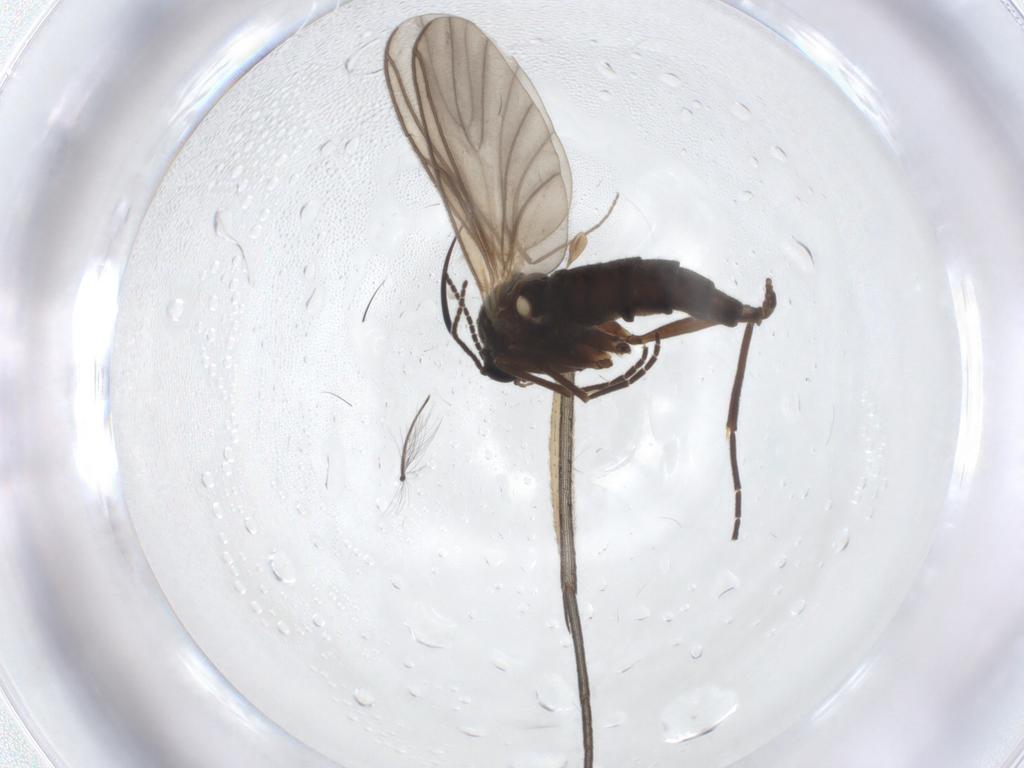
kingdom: Animalia
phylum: Arthropoda
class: Insecta
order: Diptera
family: Sciaridae
